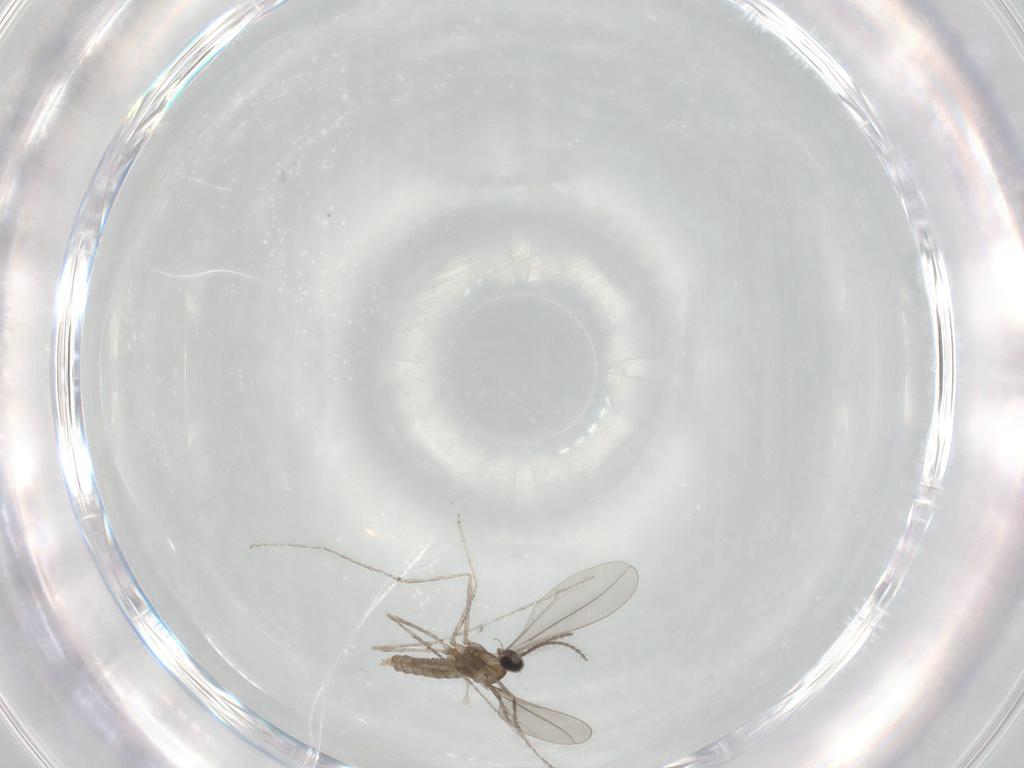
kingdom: Animalia
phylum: Arthropoda
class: Insecta
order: Diptera
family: Cecidomyiidae
